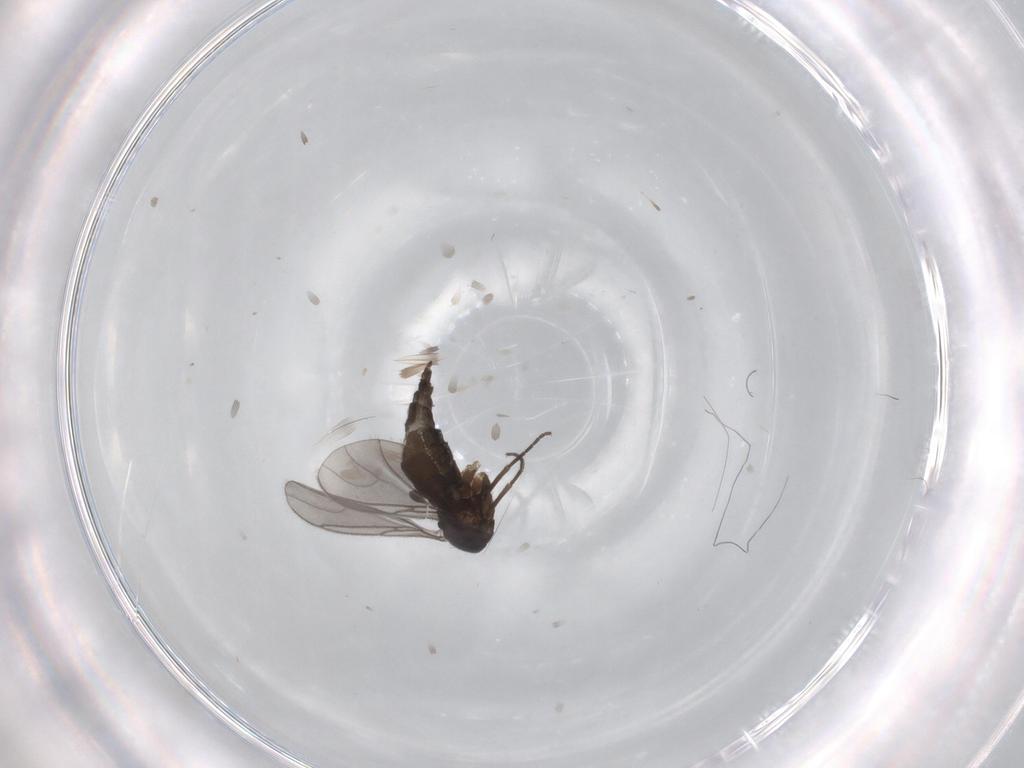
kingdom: Animalia
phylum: Arthropoda
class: Insecta
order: Diptera
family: Sciaridae
